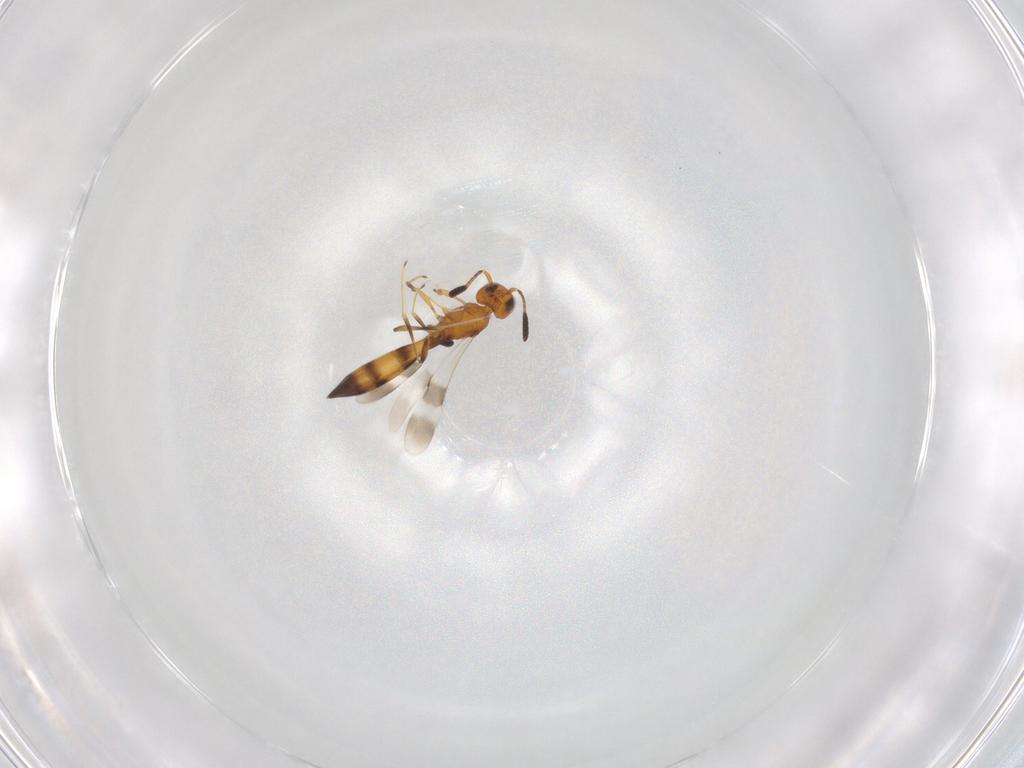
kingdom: Animalia
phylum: Arthropoda
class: Insecta
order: Hymenoptera
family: Scelionidae
